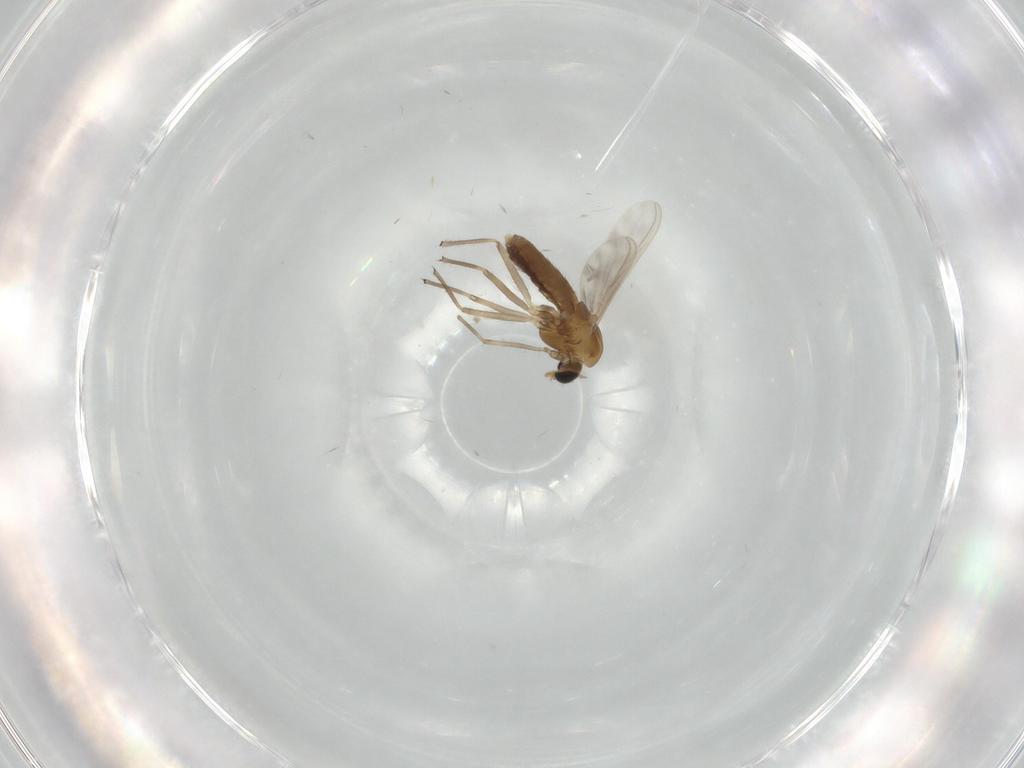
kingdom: Animalia
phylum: Arthropoda
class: Insecta
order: Diptera
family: Chironomidae
